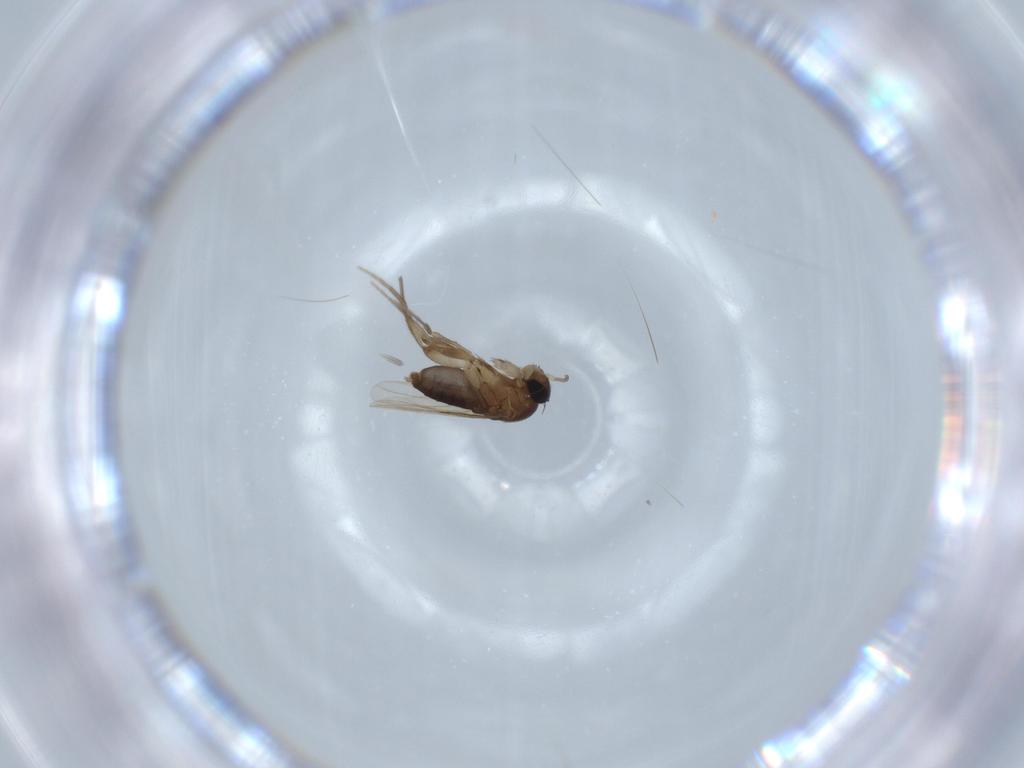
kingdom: Animalia
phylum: Arthropoda
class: Insecta
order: Diptera
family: Phoridae
